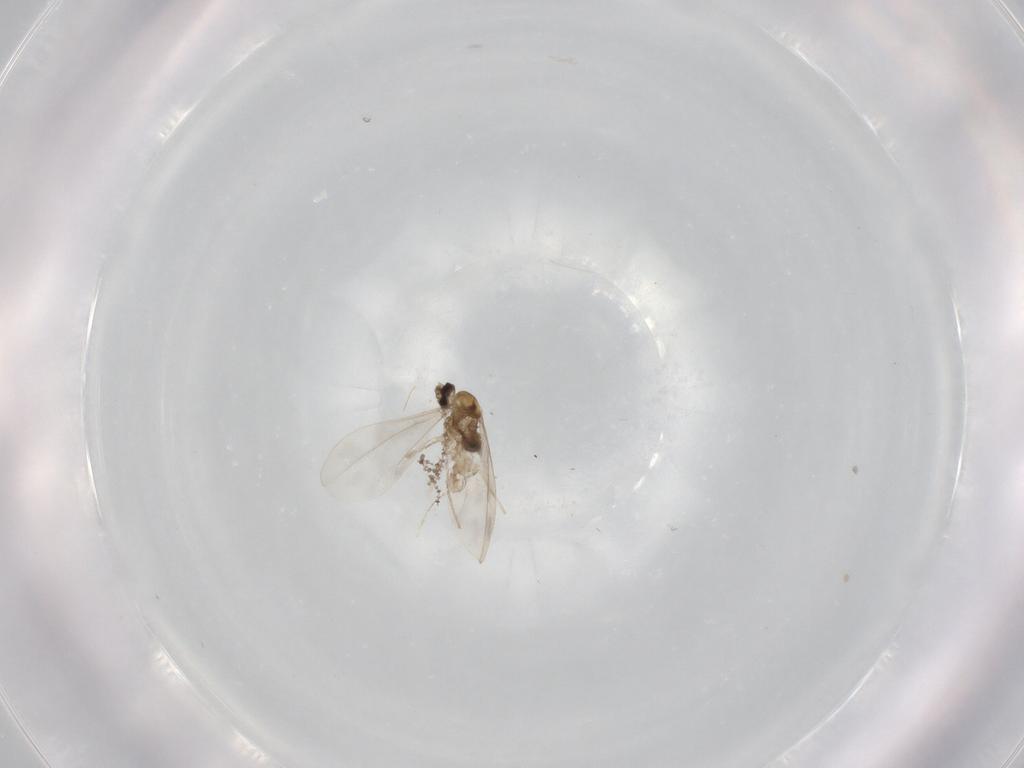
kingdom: Animalia
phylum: Arthropoda
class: Insecta
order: Diptera
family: Cecidomyiidae
